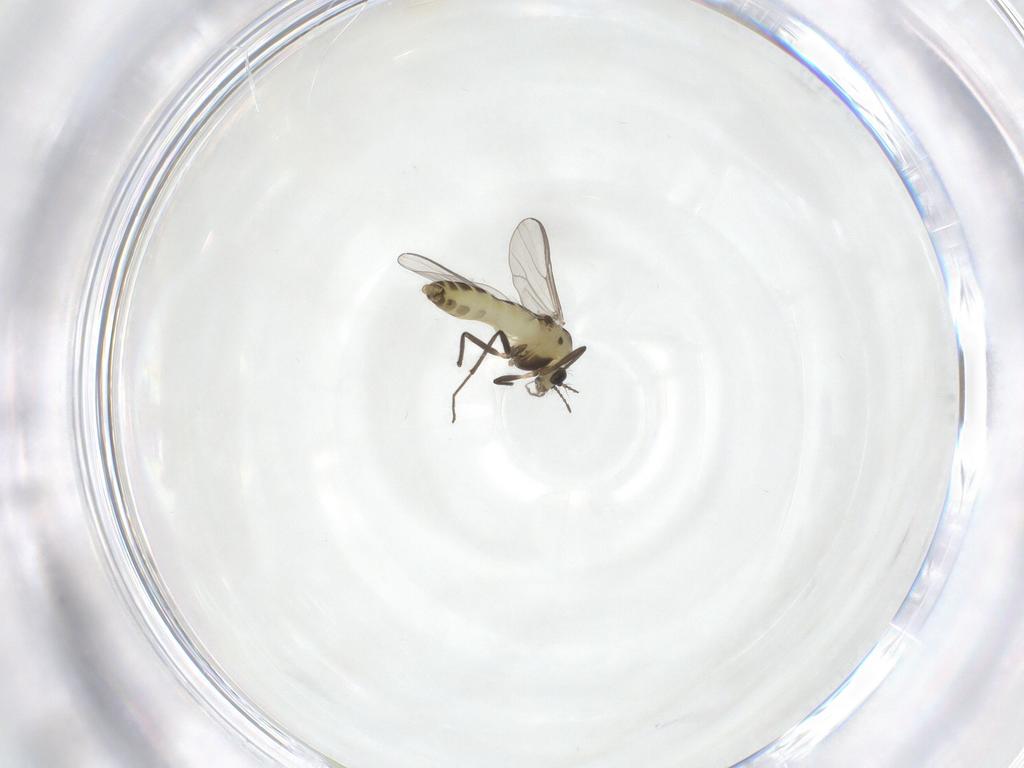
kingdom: Animalia
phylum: Arthropoda
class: Insecta
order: Diptera
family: Chironomidae
